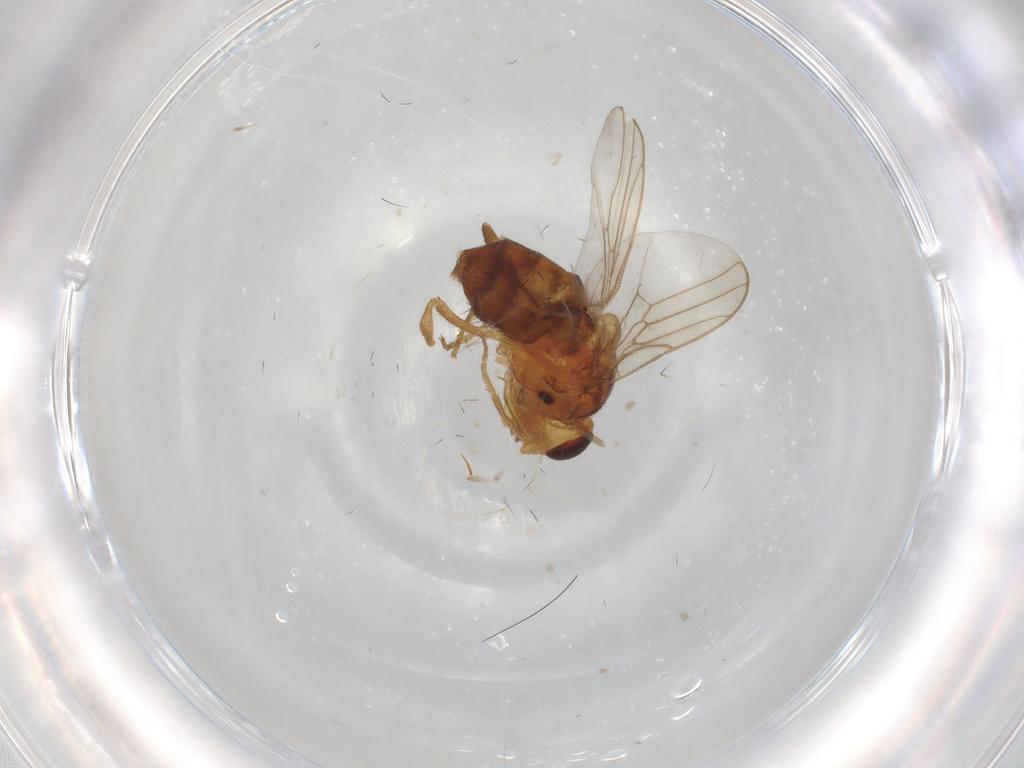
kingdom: Animalia
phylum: Arthropoda
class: Insecta
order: Diptera
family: Chloropidae
